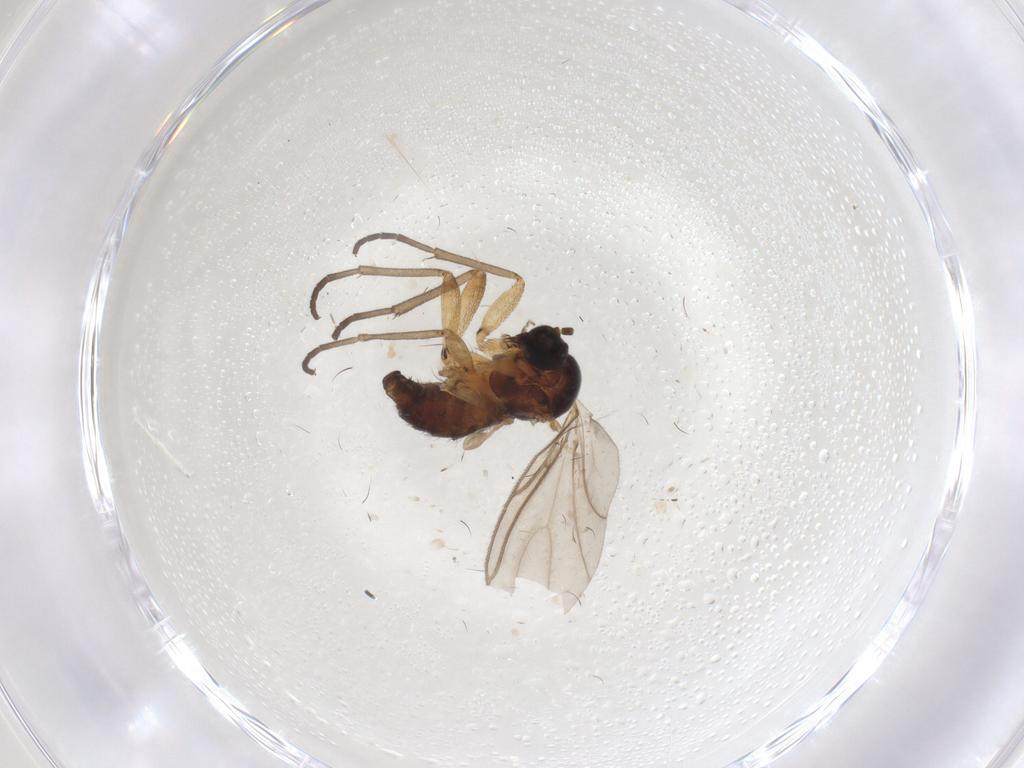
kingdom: Animalia
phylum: Arthropoda
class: Insecta
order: Diptera
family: Sciaridae
